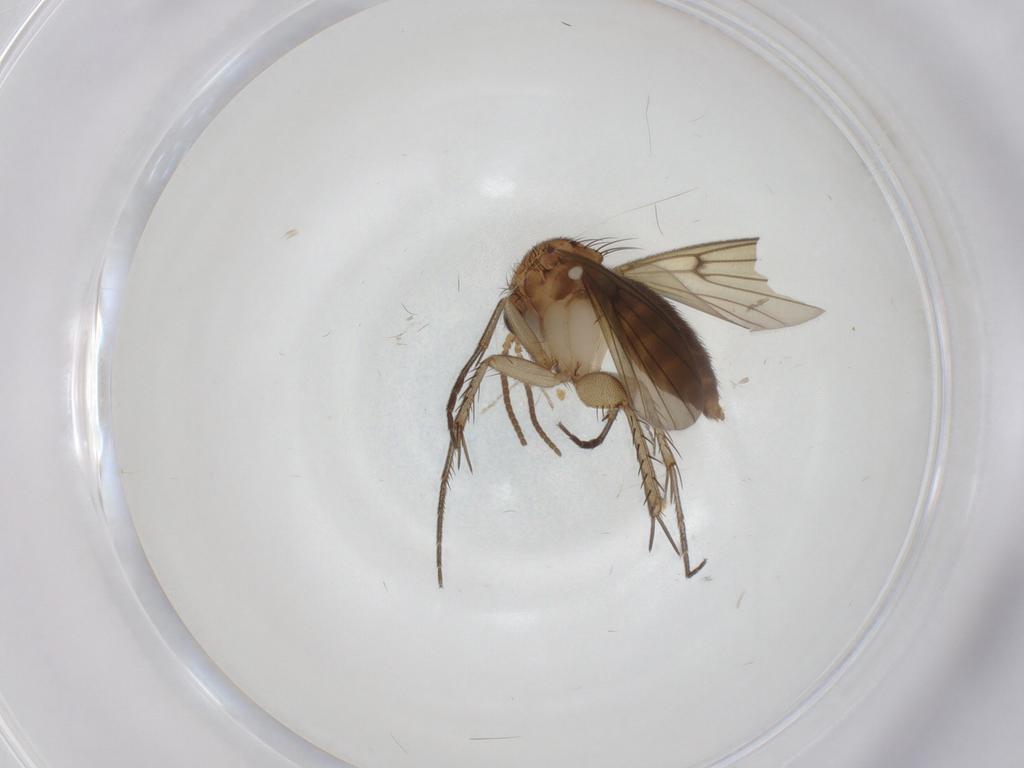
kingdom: Animalia
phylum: Arthropoda
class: Insecta
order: Diptera
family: Cecidomyiidae
